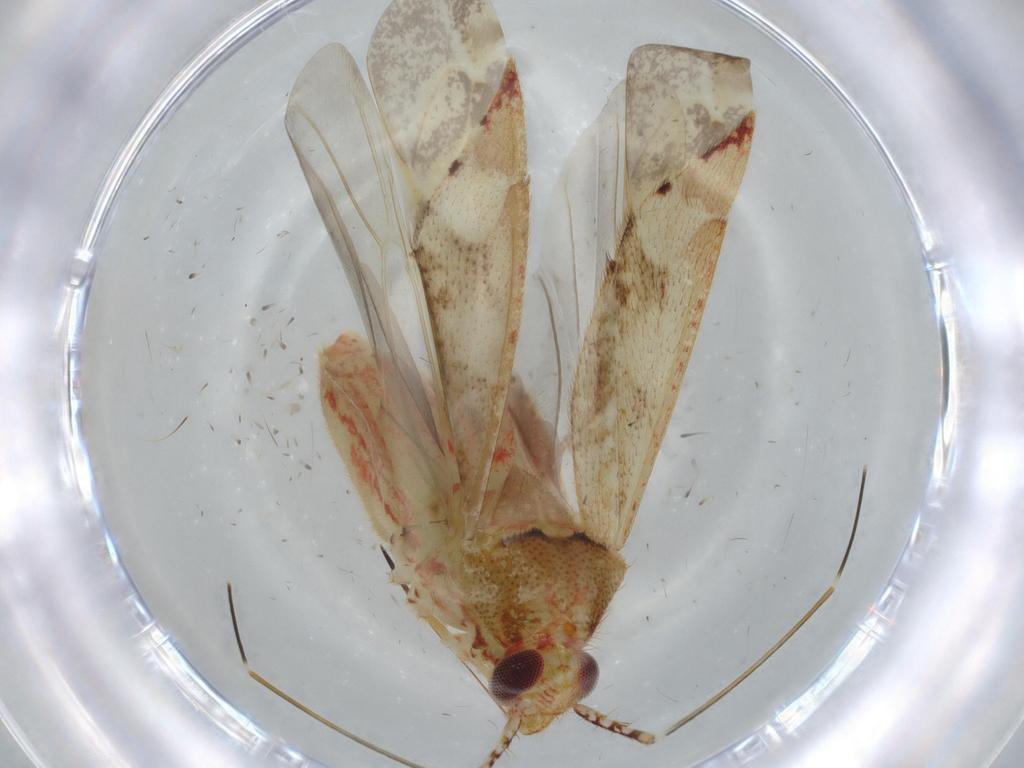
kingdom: Animalia
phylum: Arthropoda
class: Insecta
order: Hemiptera
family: Miridae
